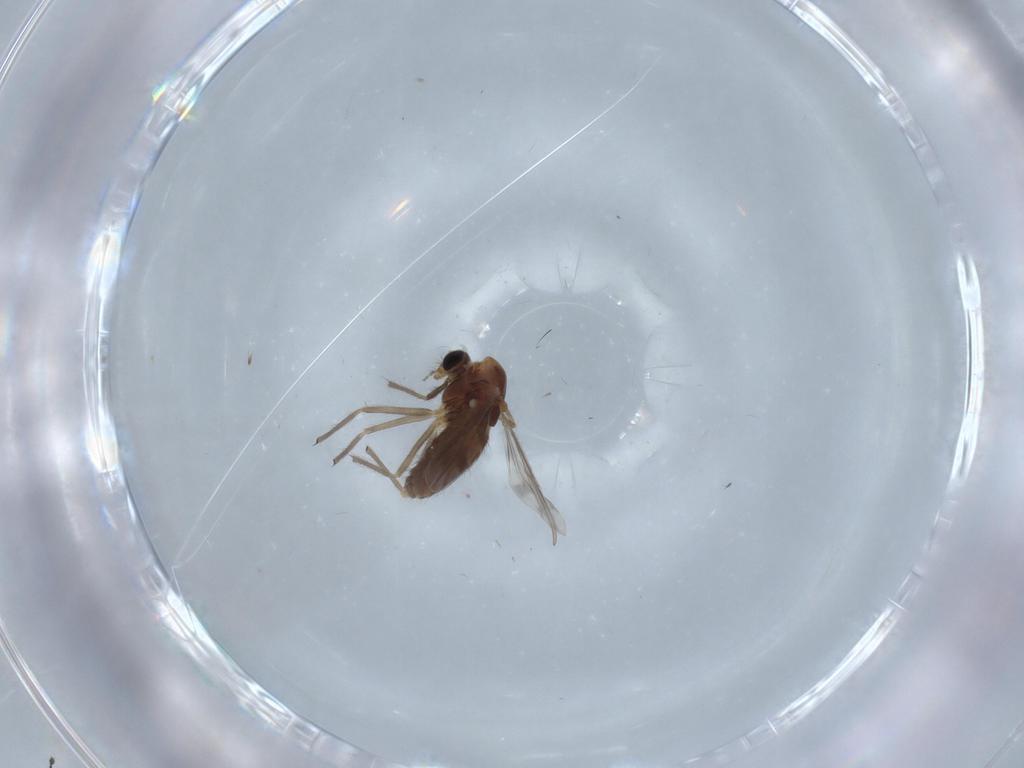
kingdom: Animalia
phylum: Arthropoda
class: Insecta
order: Diptera
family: Chironomidae
